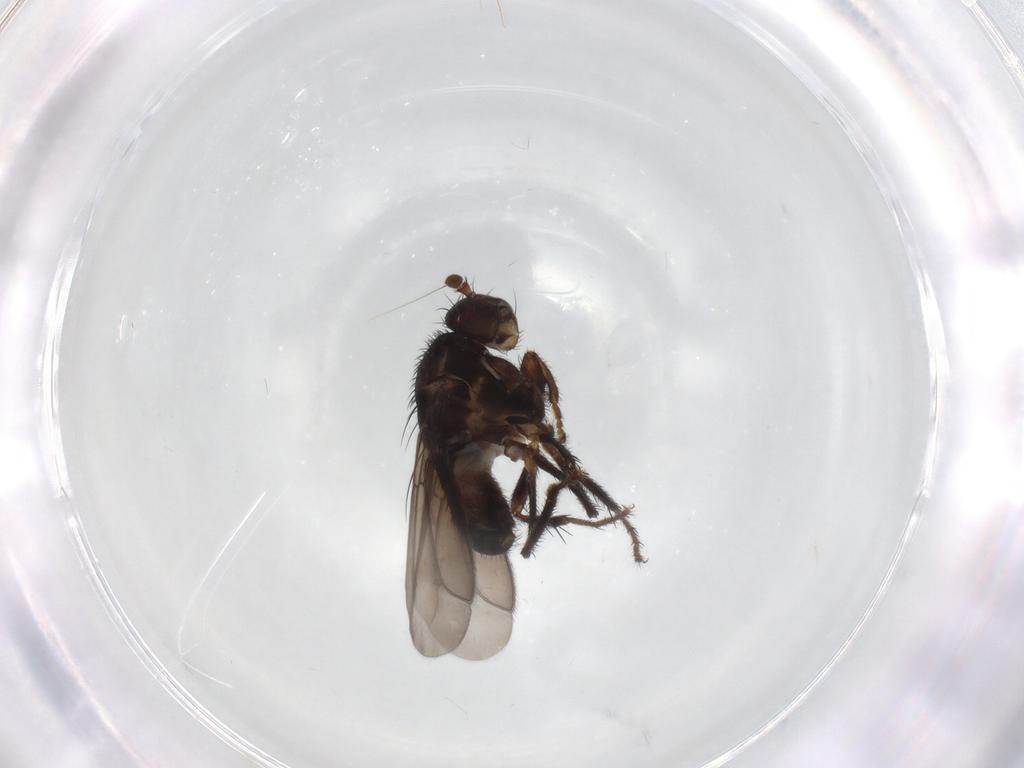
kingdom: Animalia
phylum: Arthropoda
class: Insecta
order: Diptera
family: Sphaeroceridae
